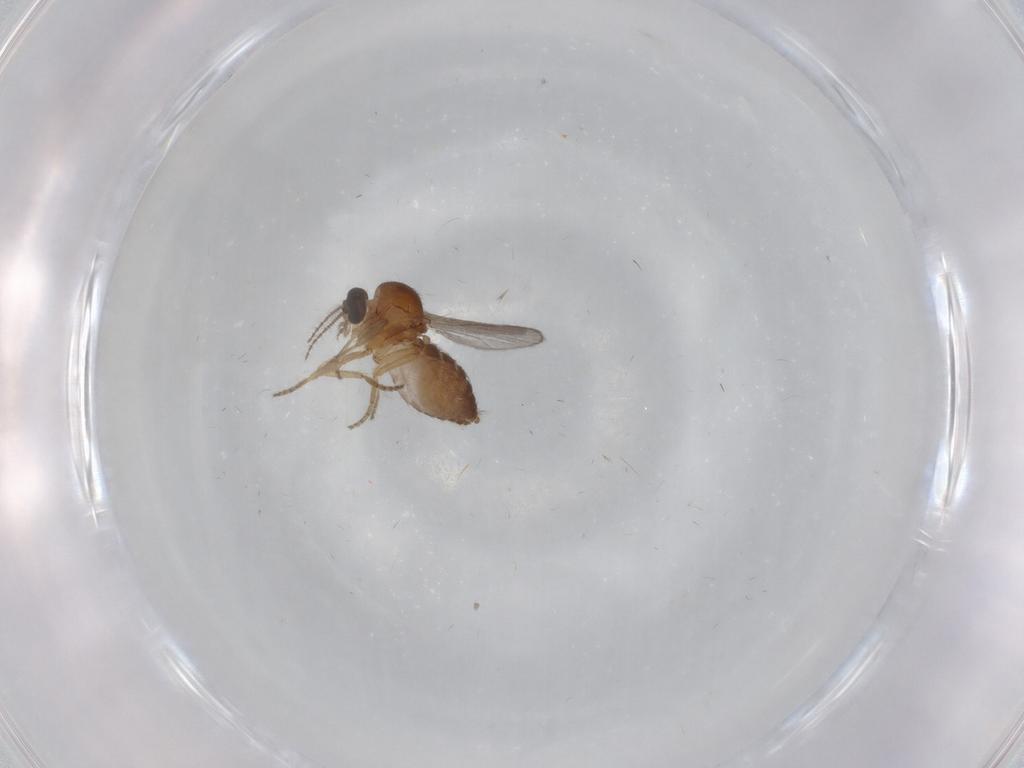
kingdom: Animalia
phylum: Arthropoda
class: Insecta
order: Diptera
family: Ceratopogonidae
